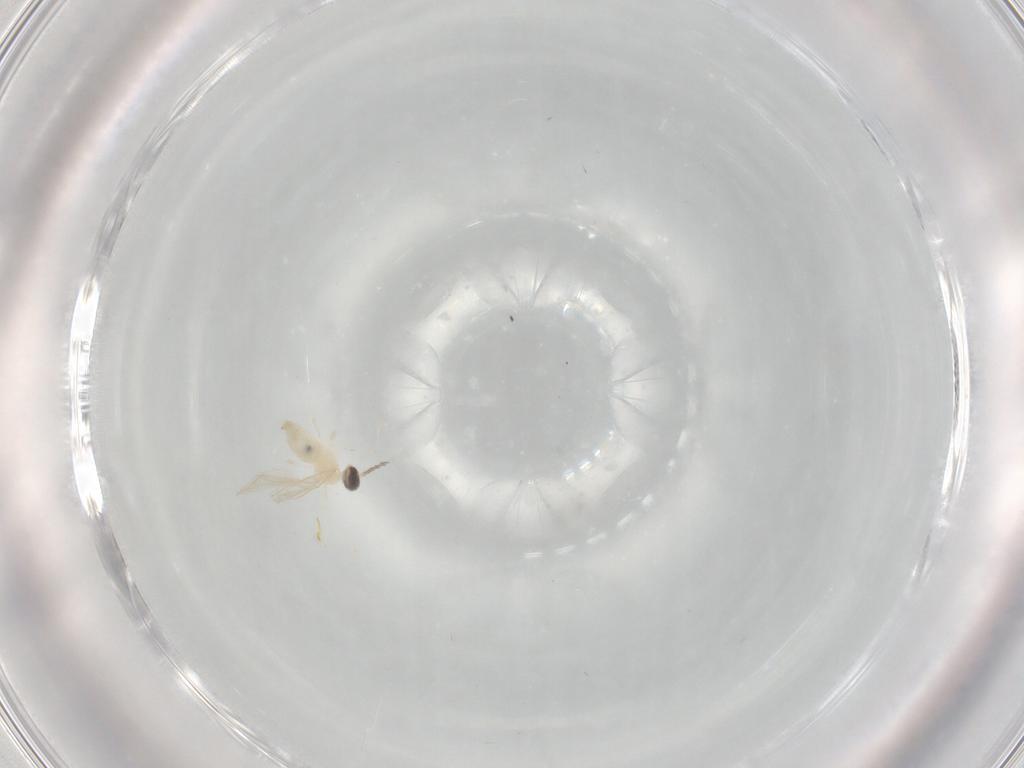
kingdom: Animalia
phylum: Arthropoda
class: Insecta
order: Diptera
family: Cecidomyiidae
